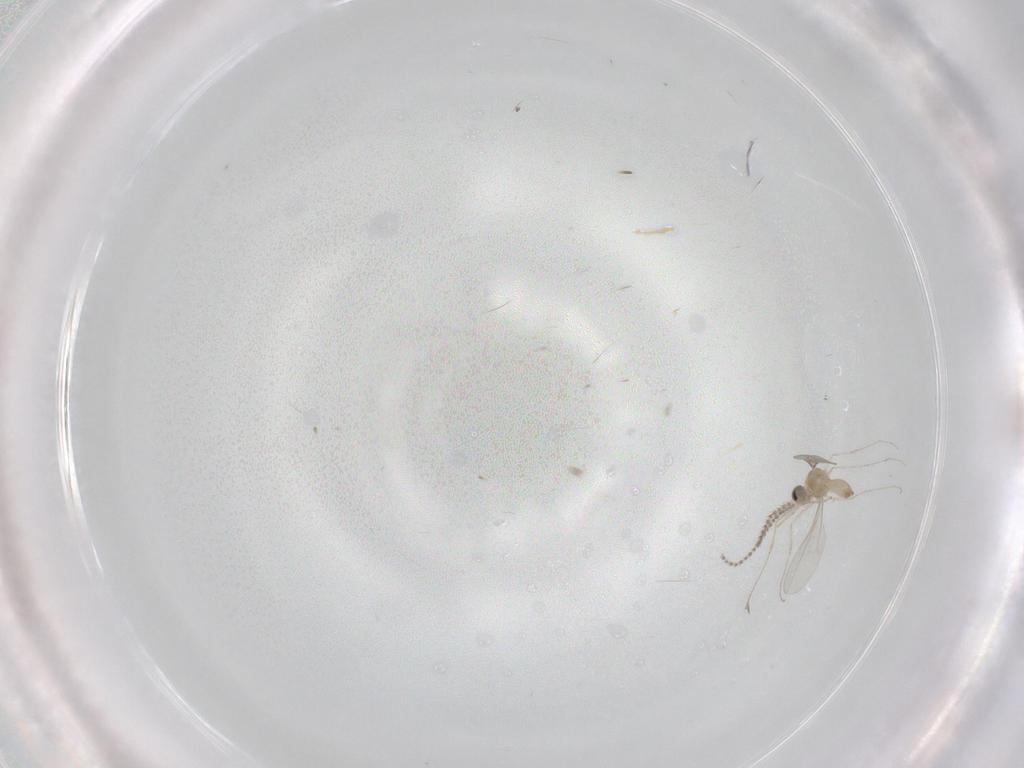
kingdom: Animalia
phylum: Arthropoda
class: Insecta
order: Diptera
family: Cecidomyiidae
